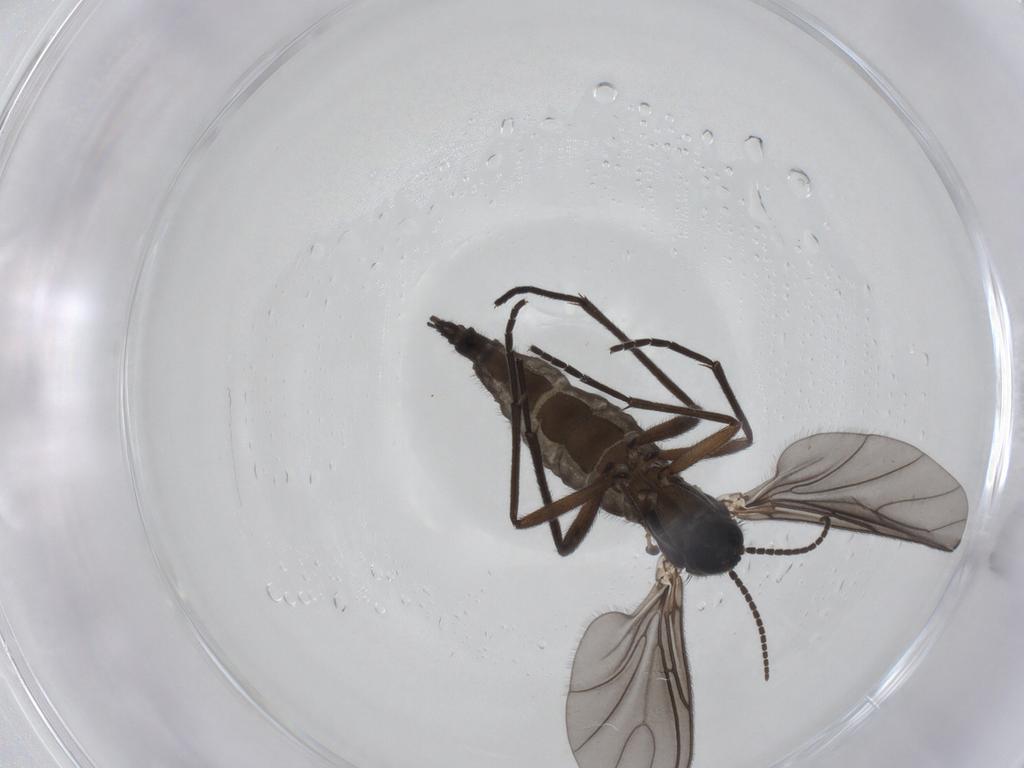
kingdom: Animalia
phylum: Arthropoda
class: Insecta
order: Diptera
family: Sciaridae
